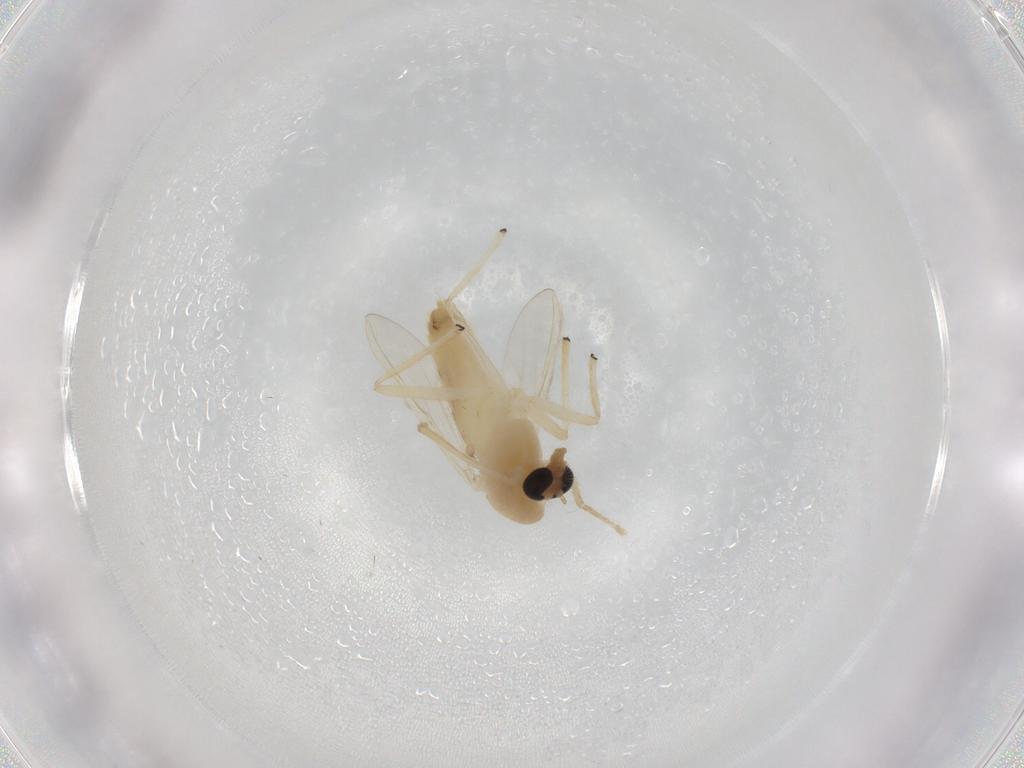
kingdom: Animalia
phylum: Arthropoda
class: Insecta
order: Diptera
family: Chironomidae
